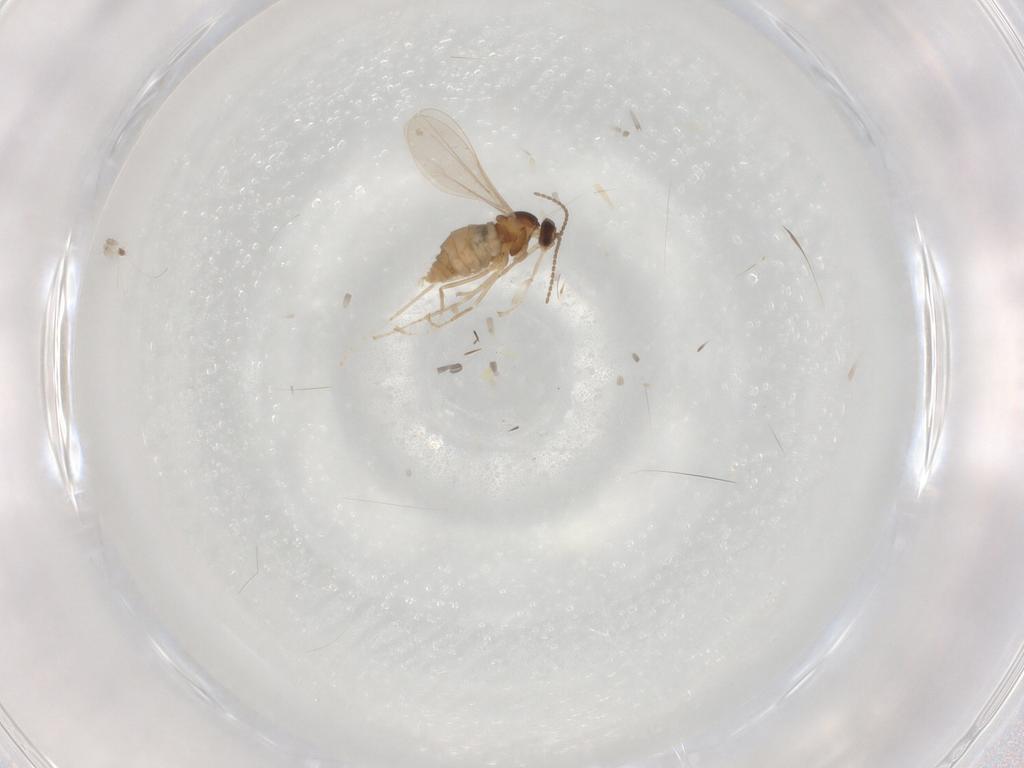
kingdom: Animalia
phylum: Arthropoda
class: Insecta
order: Diptera
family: Cecidomyiidae
